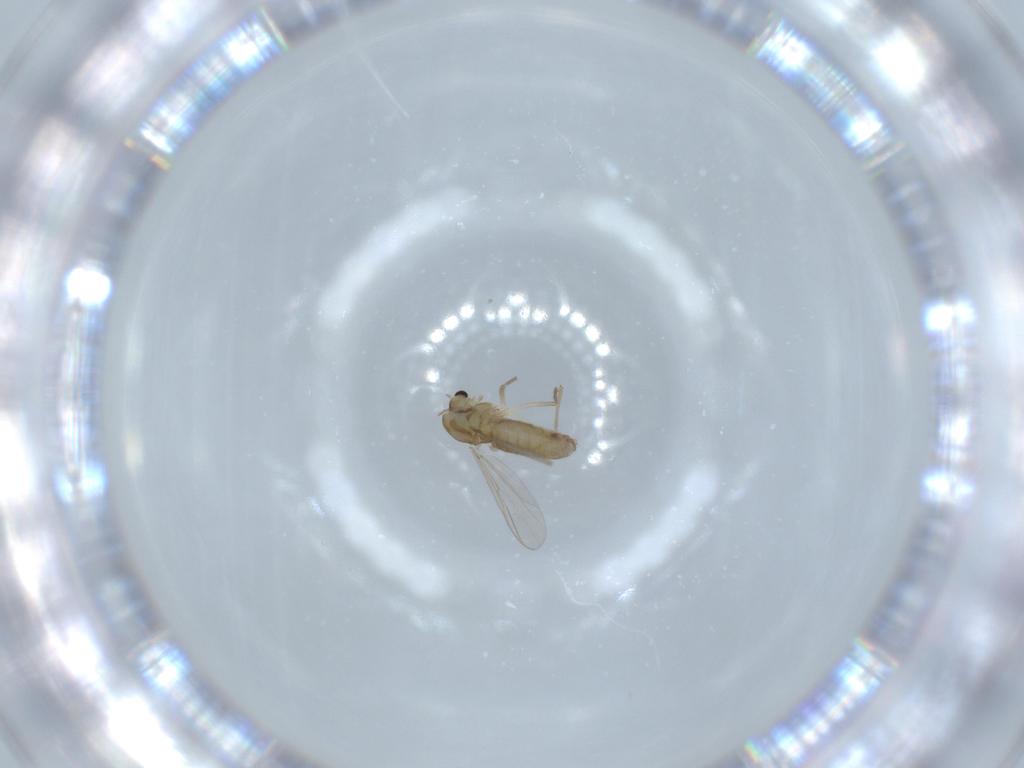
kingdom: Animalia
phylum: Arthropoda
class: Insecta
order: Diptera
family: Chironomidae
